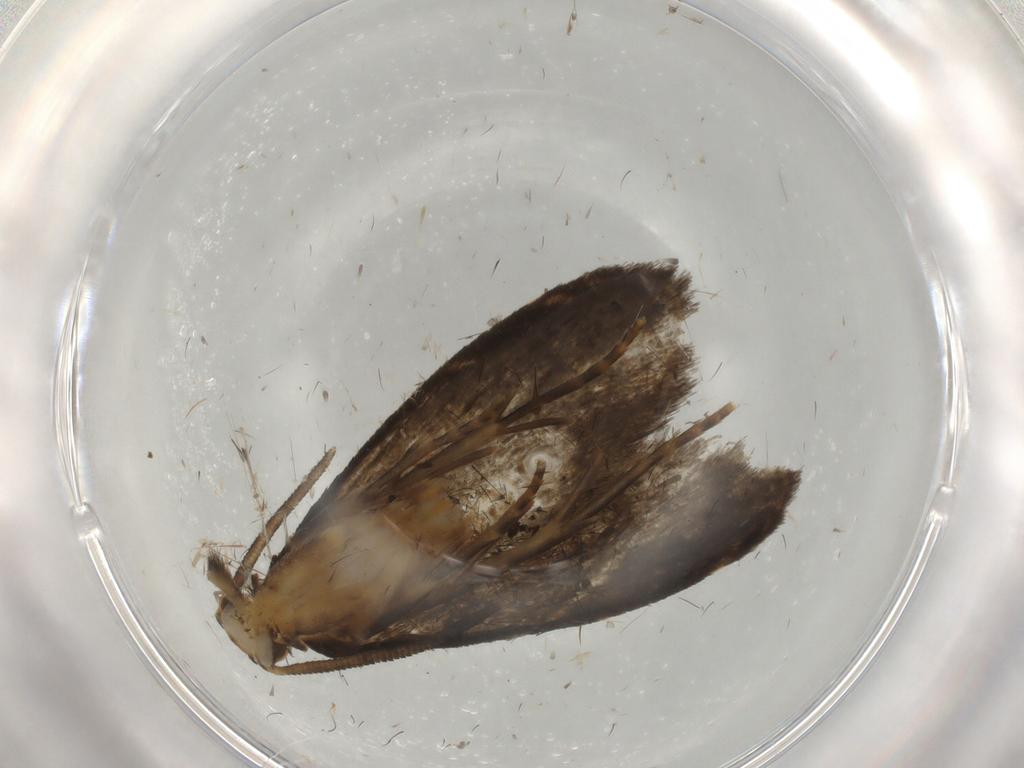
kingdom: Animalia
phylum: Arthropoda
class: Insecta
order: Lepidoptera
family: Dryadaulidae
